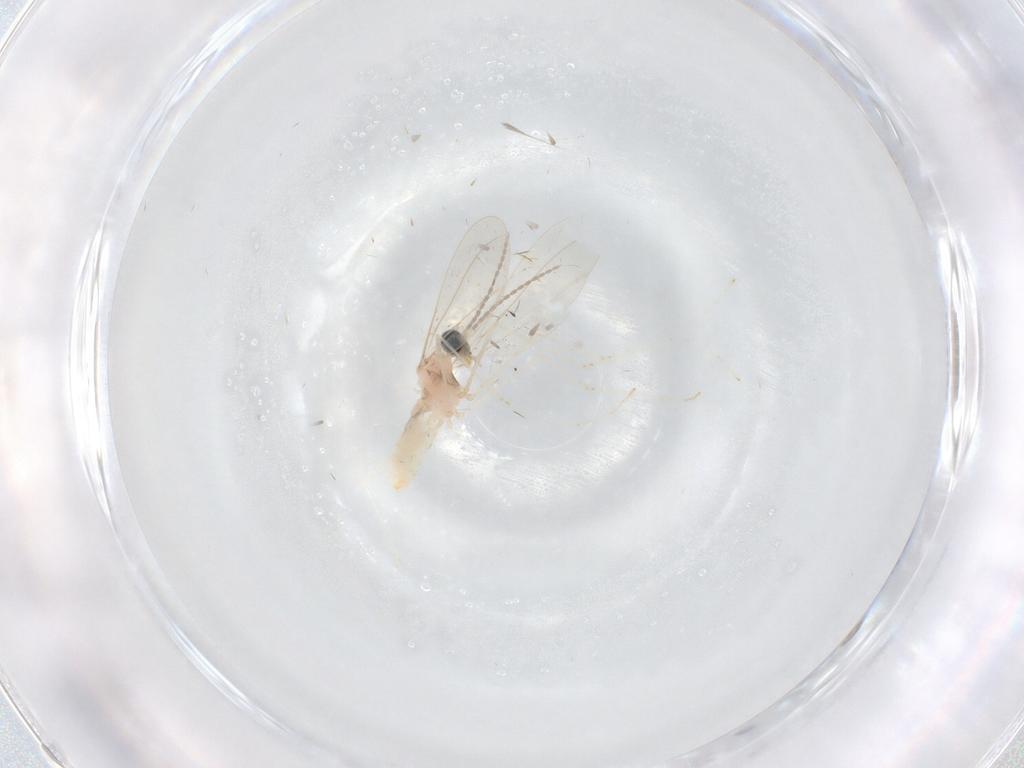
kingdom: Animalia
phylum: Arthropoda
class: Insecta
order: Diptera
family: Cecidomyiidae
